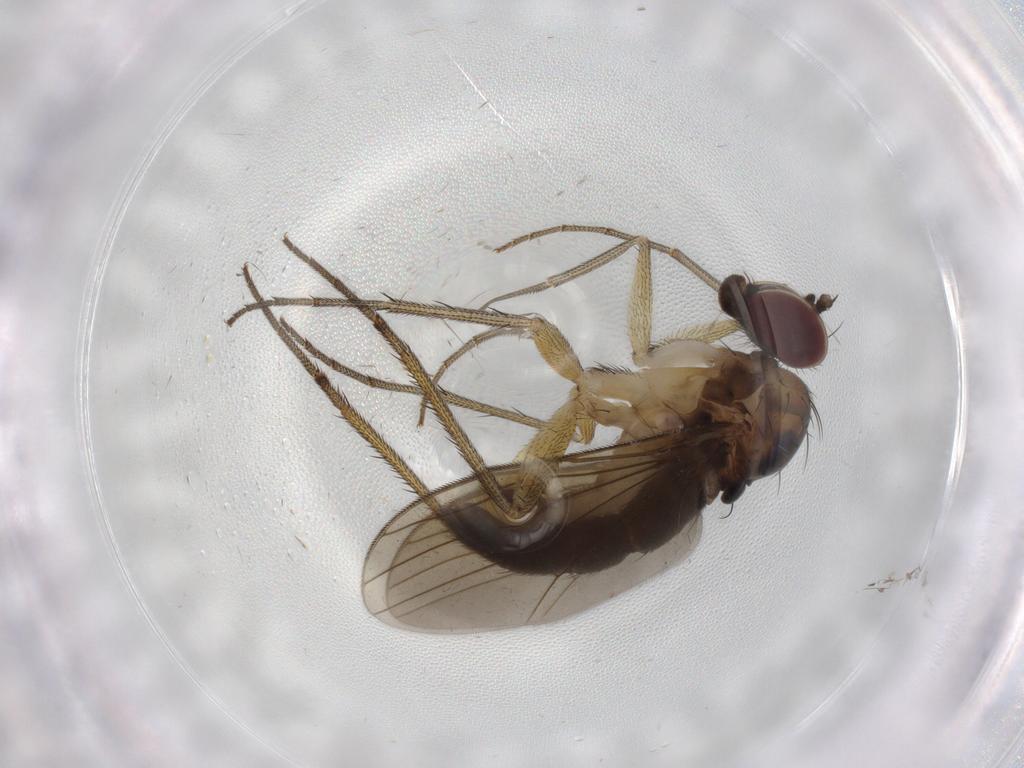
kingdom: Animalia
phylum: Arthropoda
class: Insecta
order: Diptera
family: Dolichopodidae
